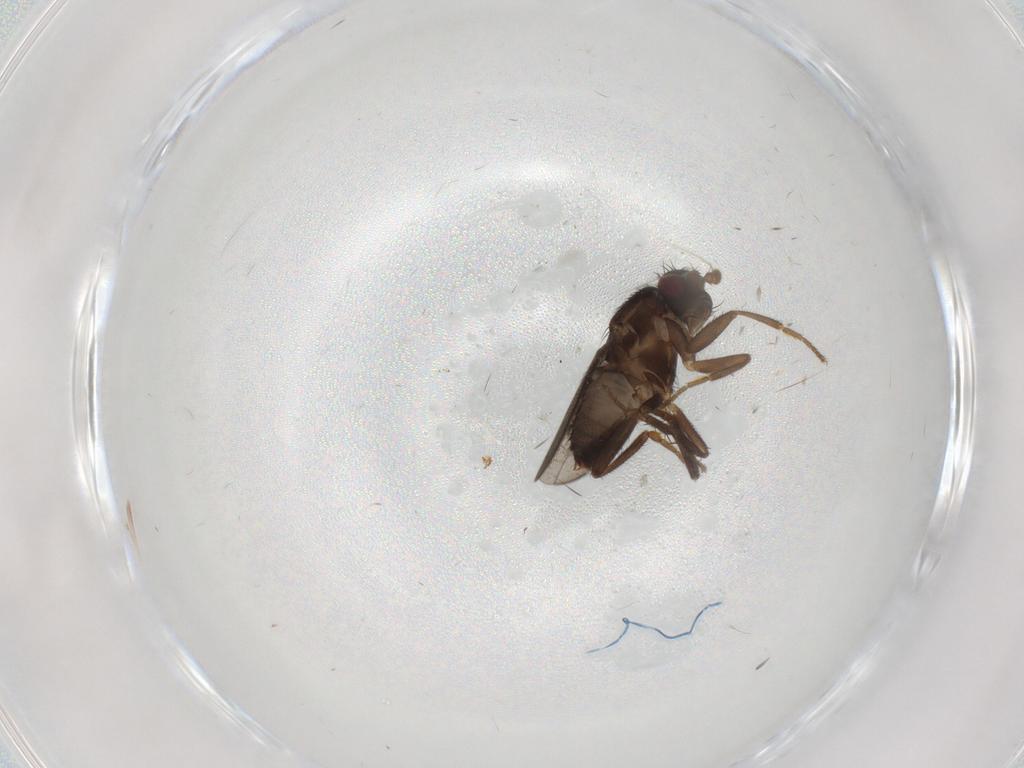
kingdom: Animalia
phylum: Arthropoda
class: Insecta
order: Diptera
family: Sphaeroceridae
